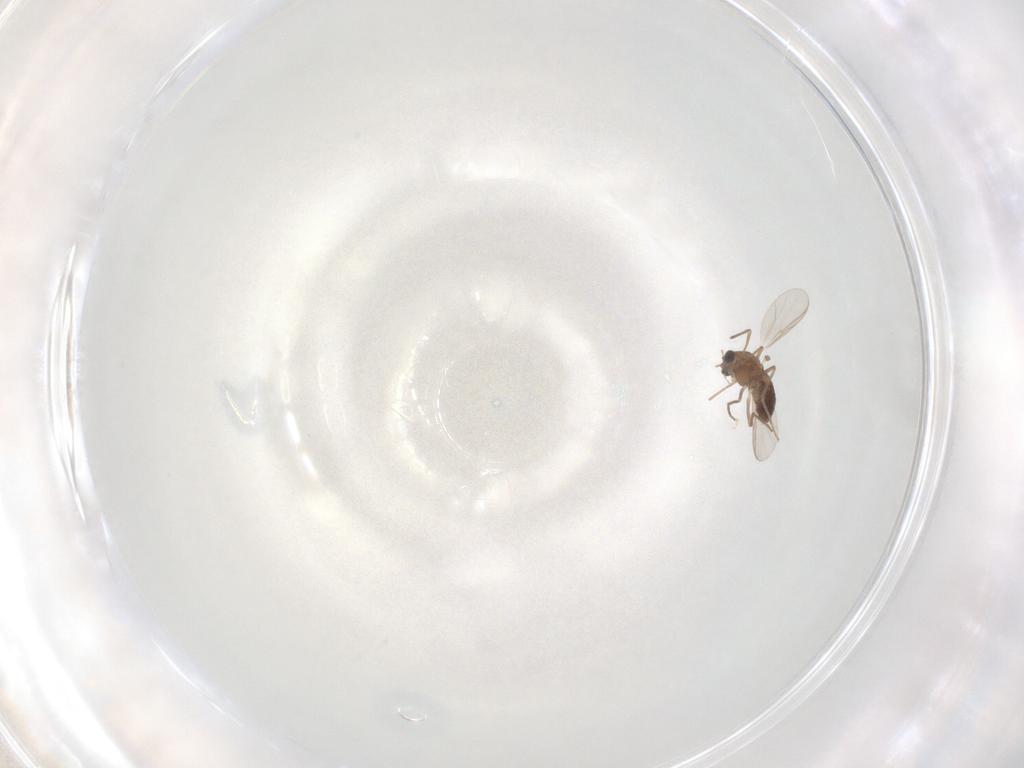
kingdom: Animalia
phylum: Arthropoda
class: Insecta
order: Diptera
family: Chironomidae
